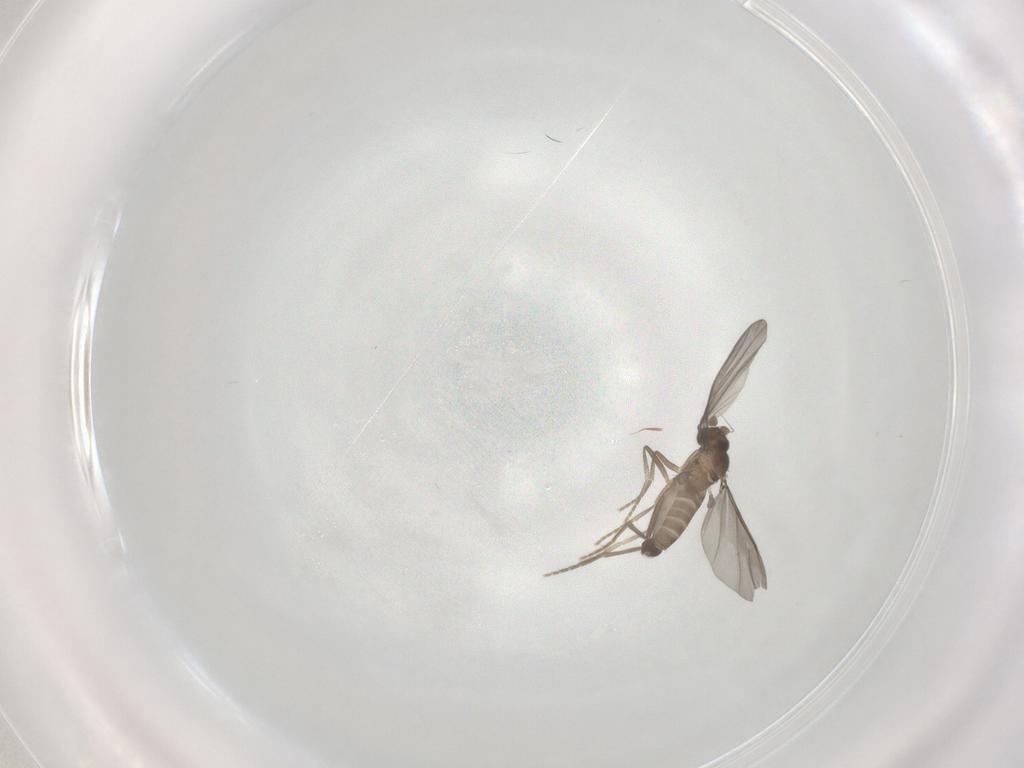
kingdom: Animalia
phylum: Arthropoda
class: Insecta
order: Diptera
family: Phoridae
